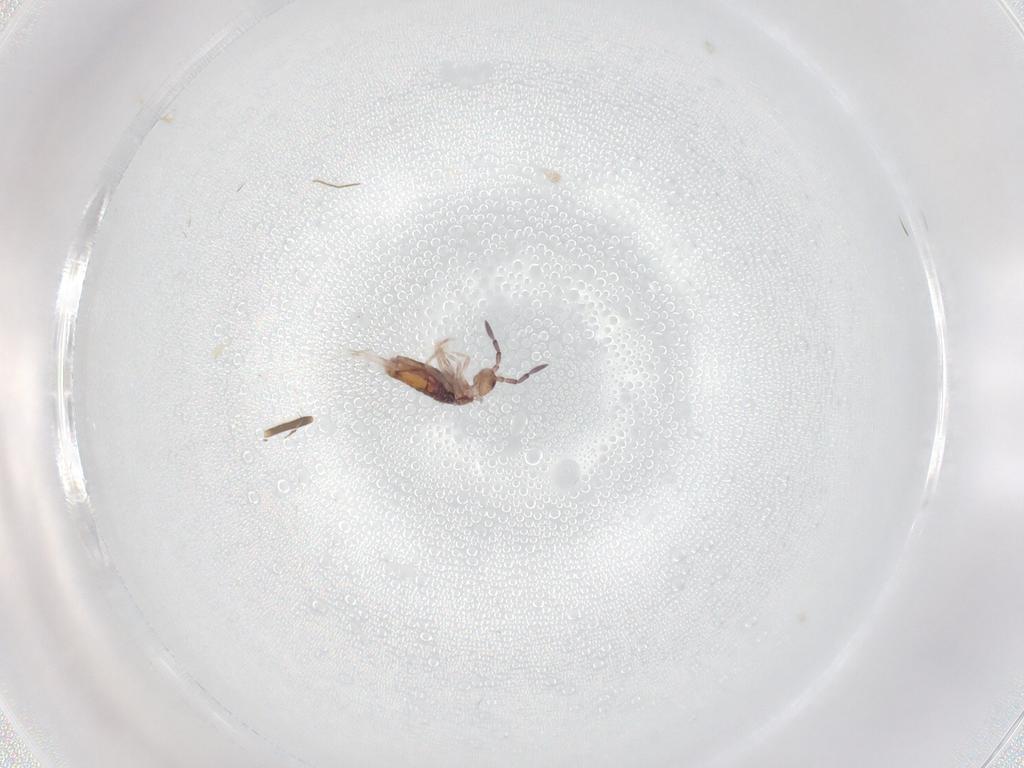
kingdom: Animalia
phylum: Arthropoda
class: Collembola
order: Entomobryomorpha
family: Entomobryidae
